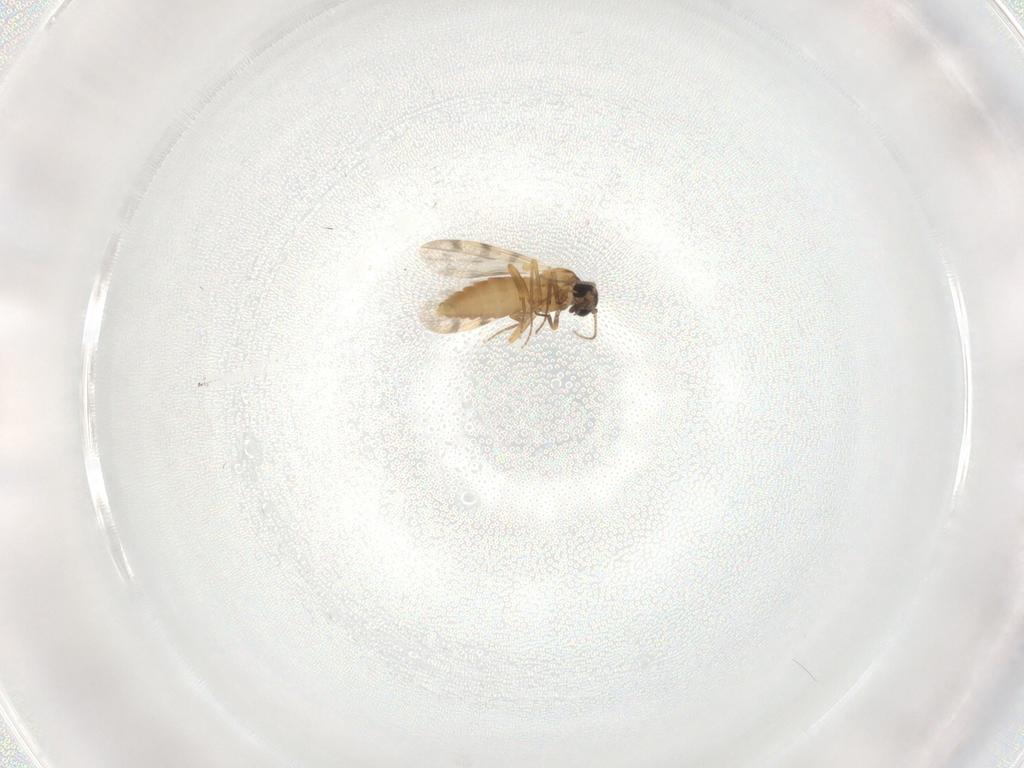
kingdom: Animalia
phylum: Arthropoda
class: Insecta
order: Diptera
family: Ceratopogonidae
